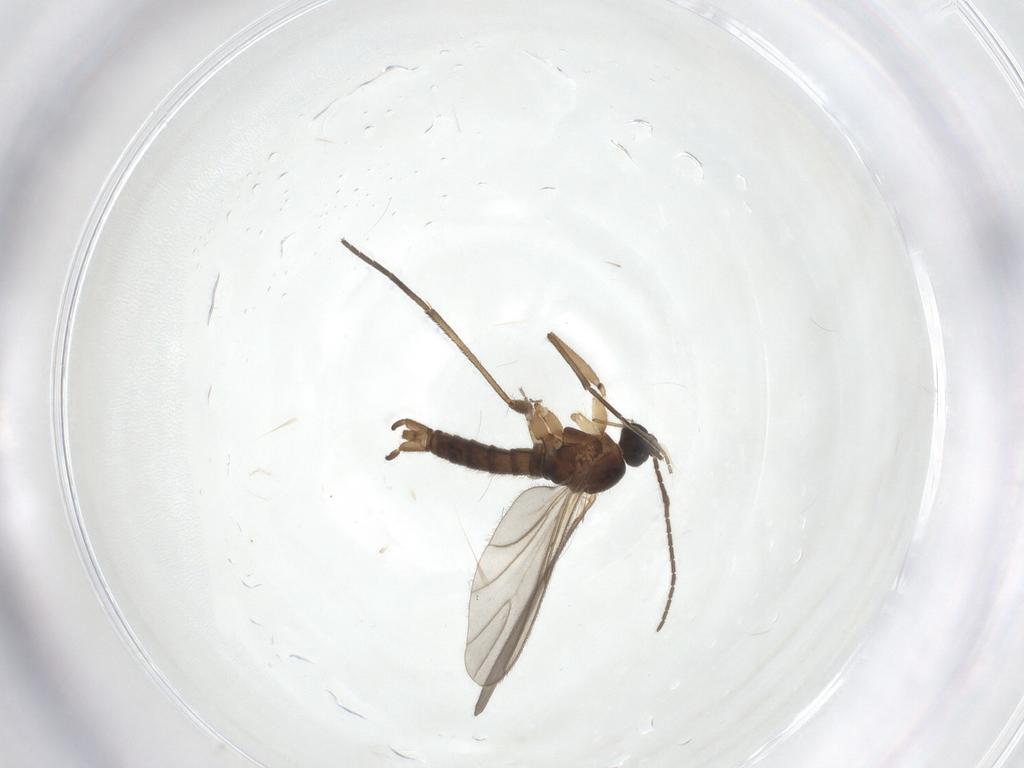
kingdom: Animalia
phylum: Arthropoda
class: Insecta
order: Diptera
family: Sciaridae
